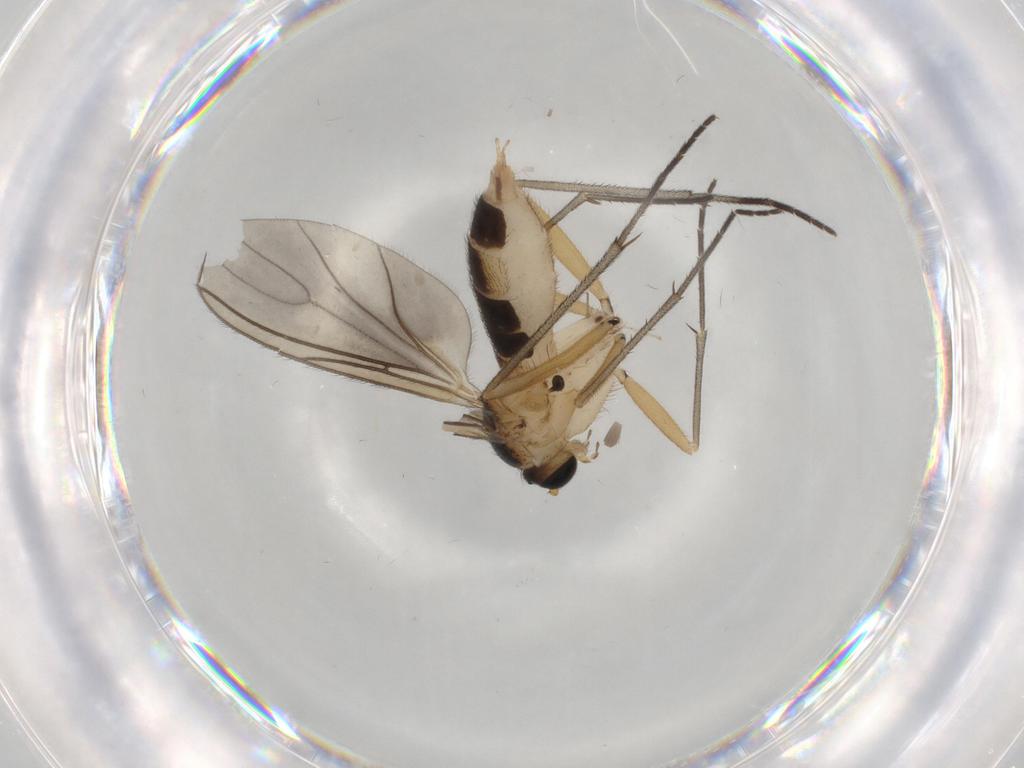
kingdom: Animalia
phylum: Arthropoda
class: Insecta
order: Diptera
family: Sciaridae
